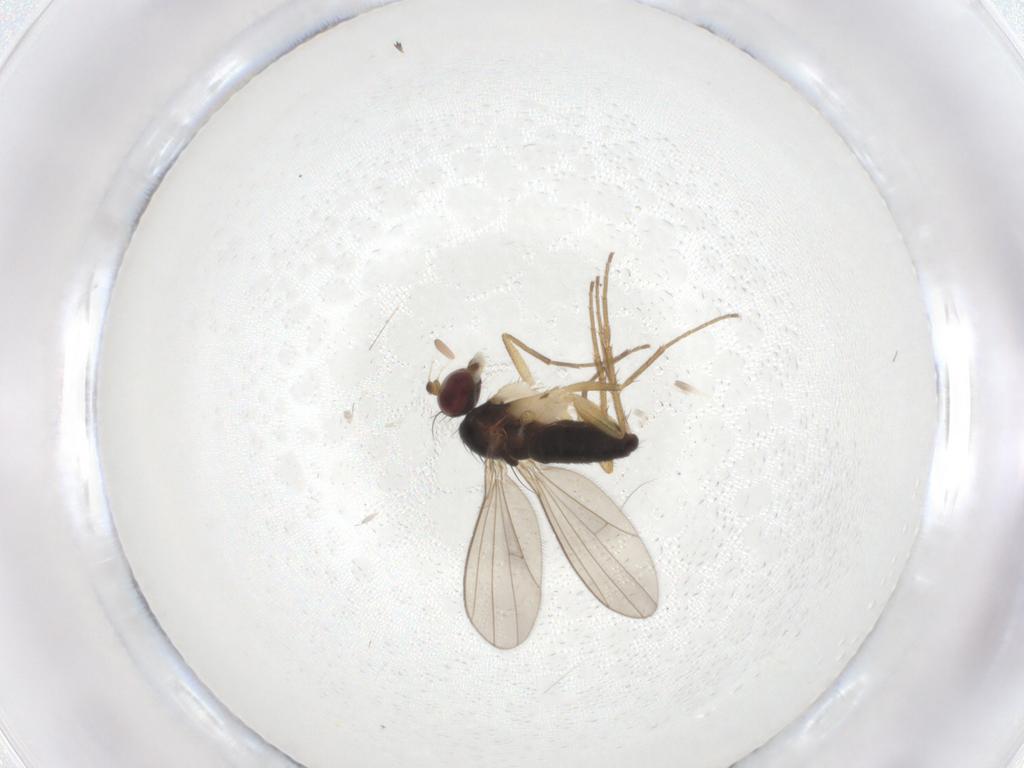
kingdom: Animalia
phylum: Arthropoda
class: Insecta
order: Diptera
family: Dolichopodidae
